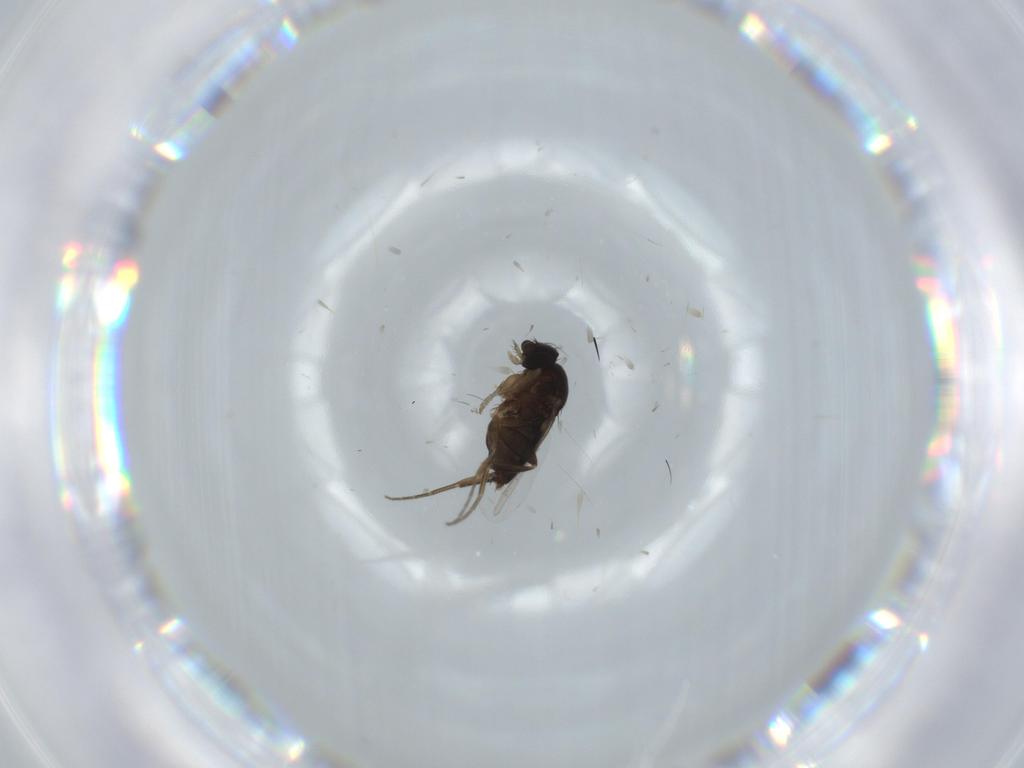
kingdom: Animalia
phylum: Arthropoda
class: Insecta
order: Diptera
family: Phoridae
